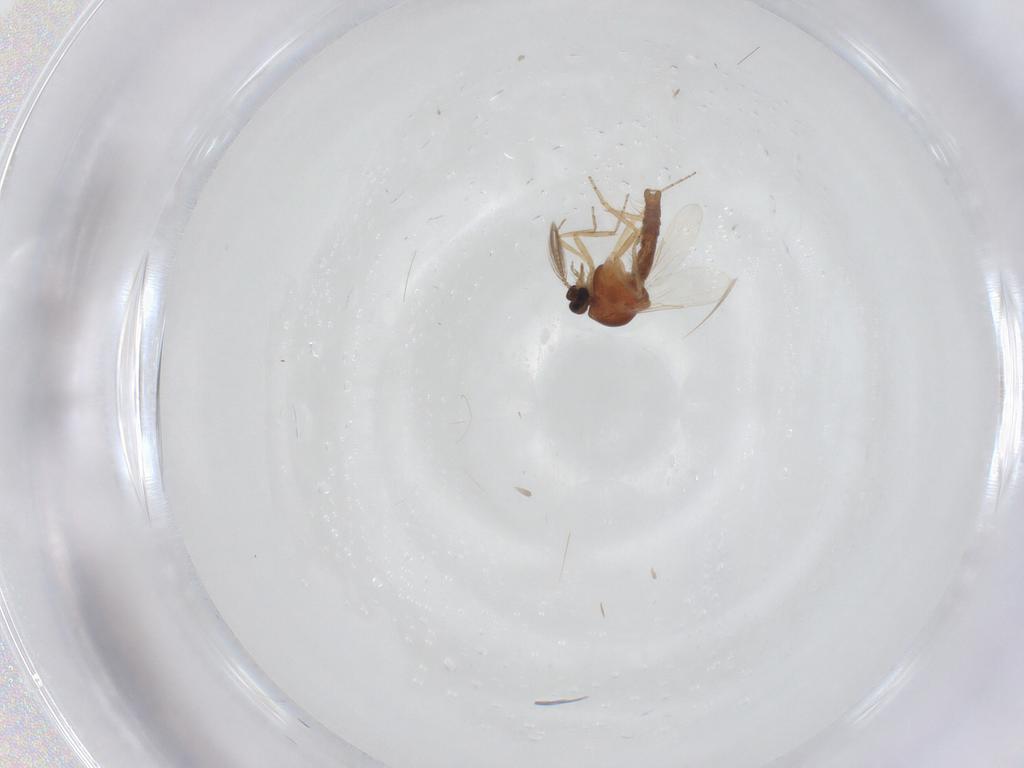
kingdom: Animalia
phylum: Arthropoda
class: Insecta
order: Diptera
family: Ceratopogonidae
